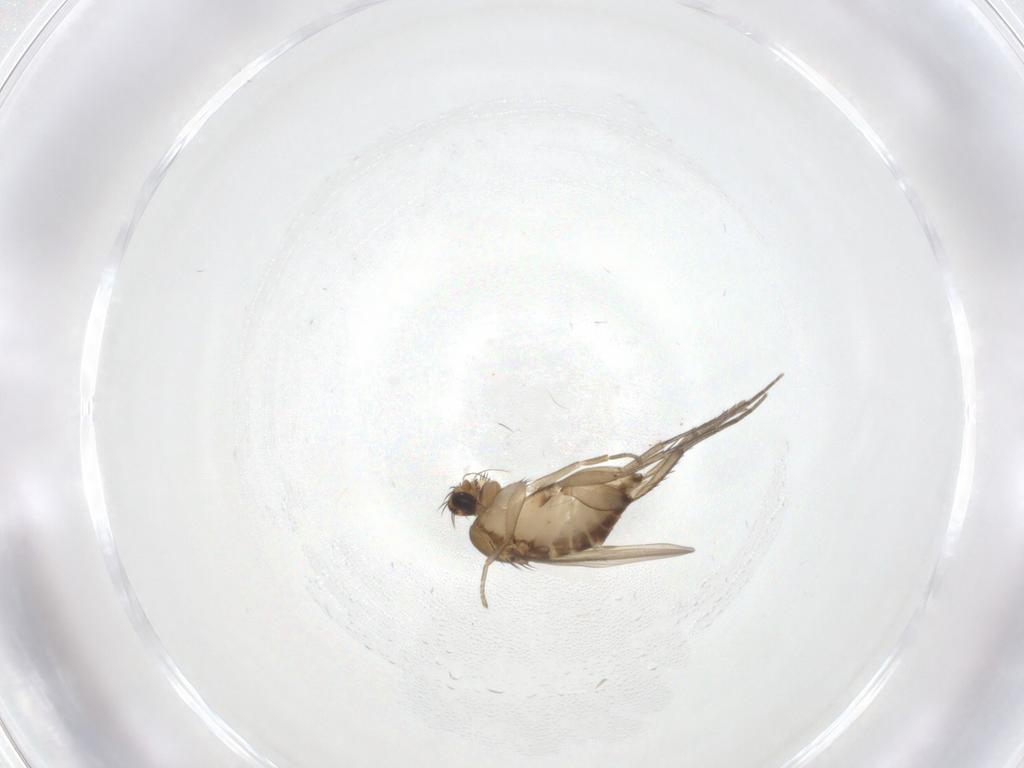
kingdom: Animalia
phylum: Arthropoda
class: Insecta
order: Diptera
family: Phoridae
